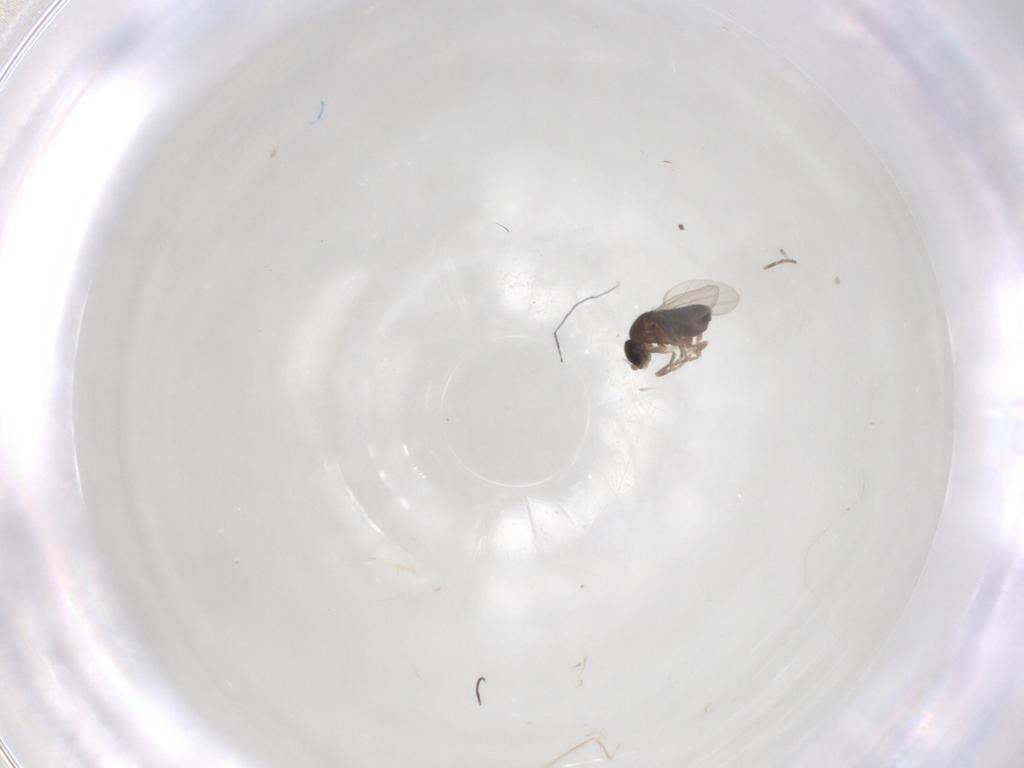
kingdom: Animalia
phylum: Arthropoda
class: Insecta
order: Diptera
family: Phoridae
